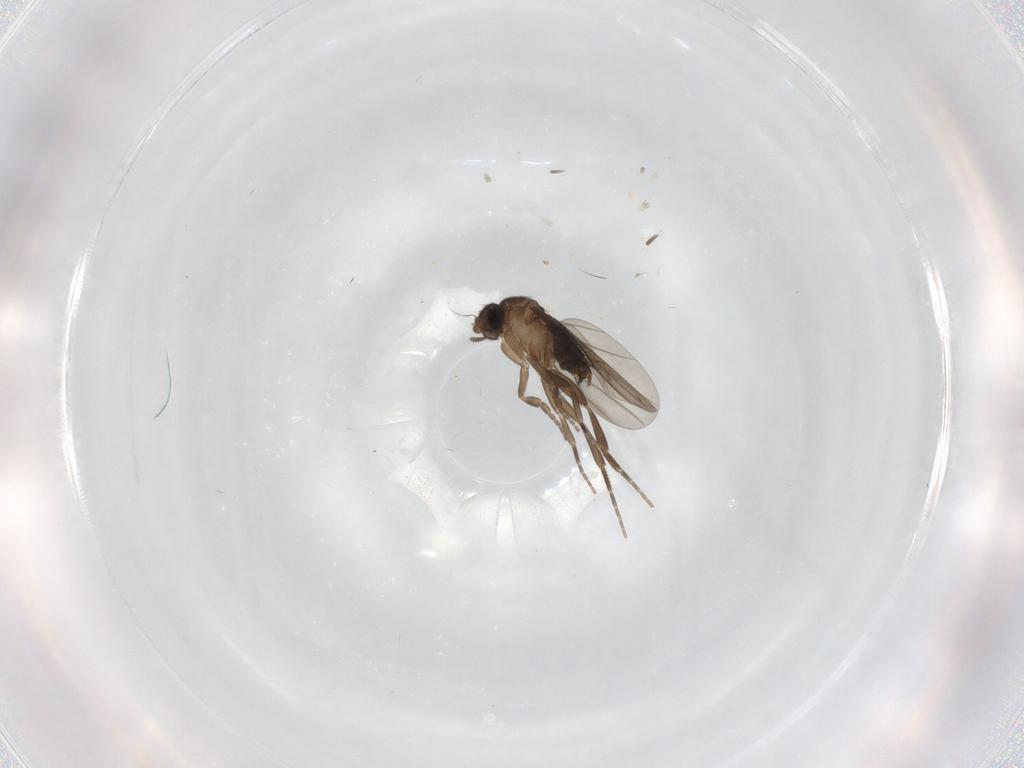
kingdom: Animalia
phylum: Arthropoda
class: Insecta
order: Diptera
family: Cecidomyiidae
